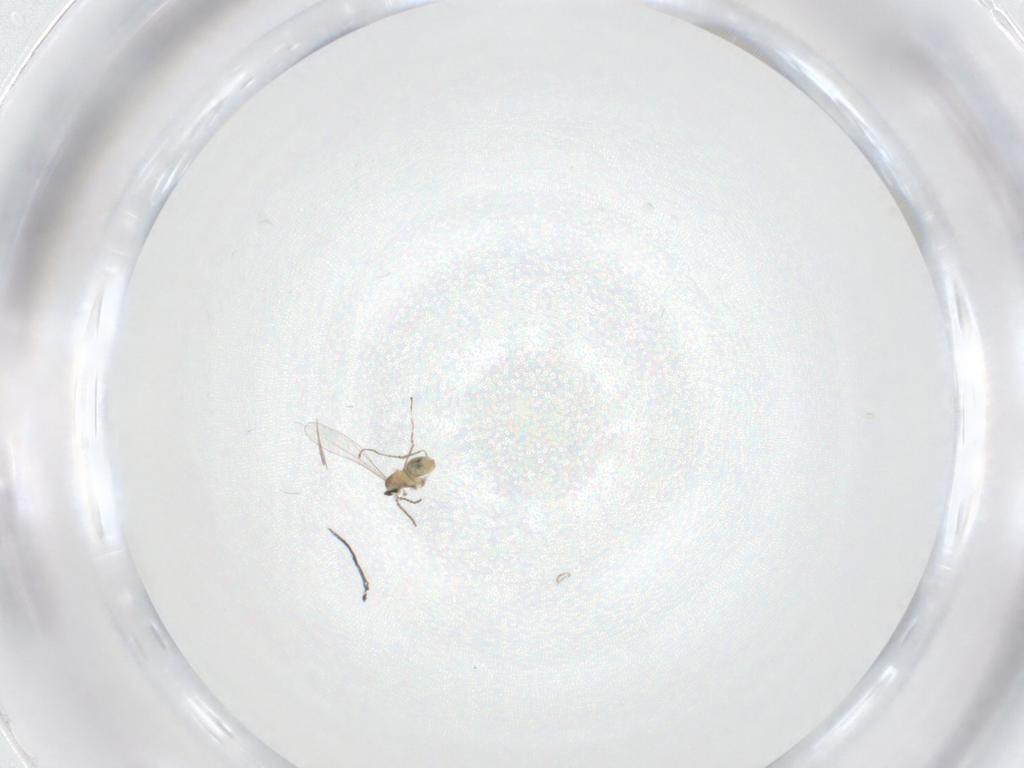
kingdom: Animalia
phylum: Arthropoda
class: Insecta
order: Diptera
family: Cecidomyiidae
